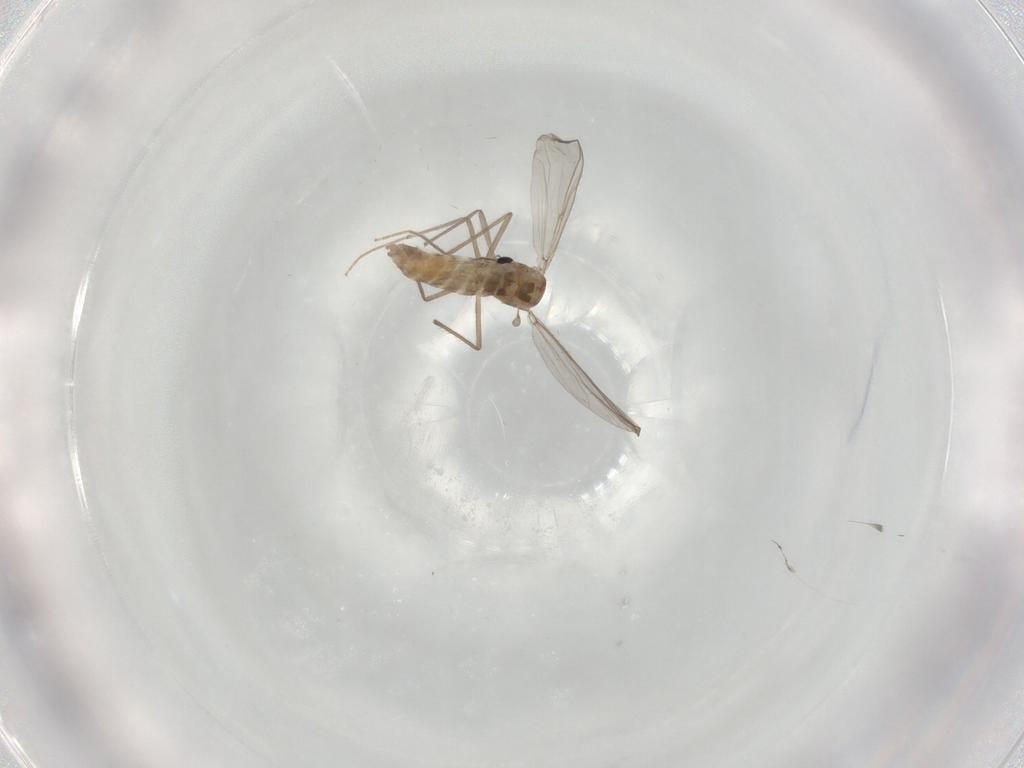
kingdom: Animalia
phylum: Arthropoda
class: Insecta
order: Diptera
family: Chironomidae
